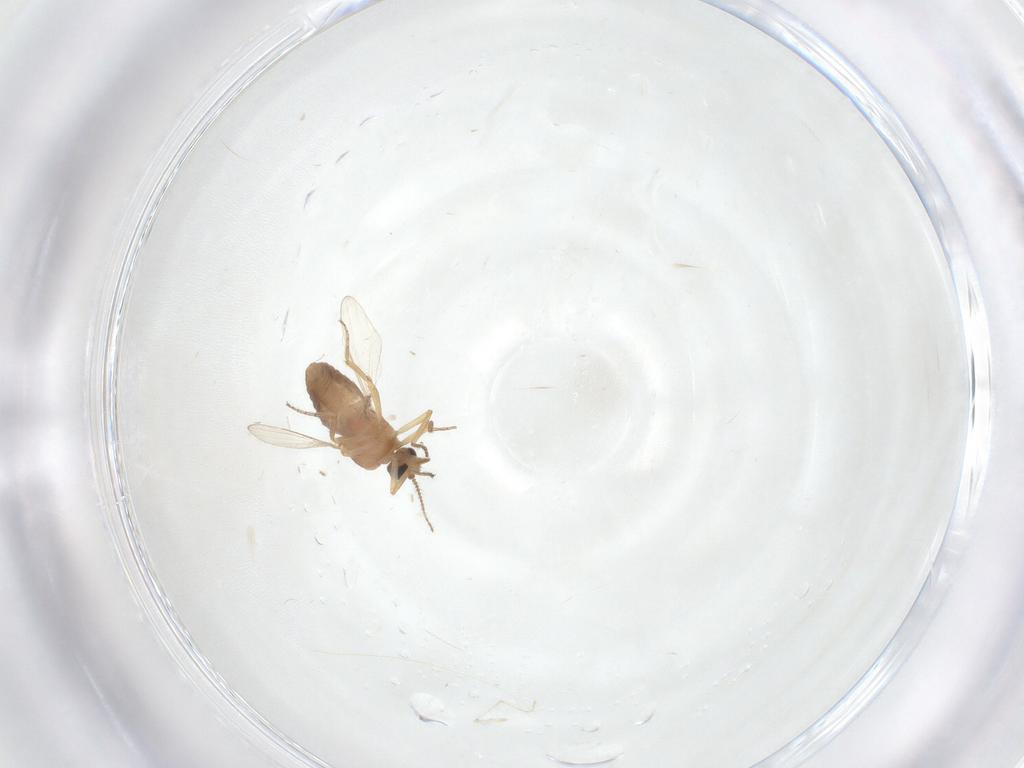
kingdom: Animalia
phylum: Arthropoda
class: Insecta
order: Diptera
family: Ceratopogonidae
